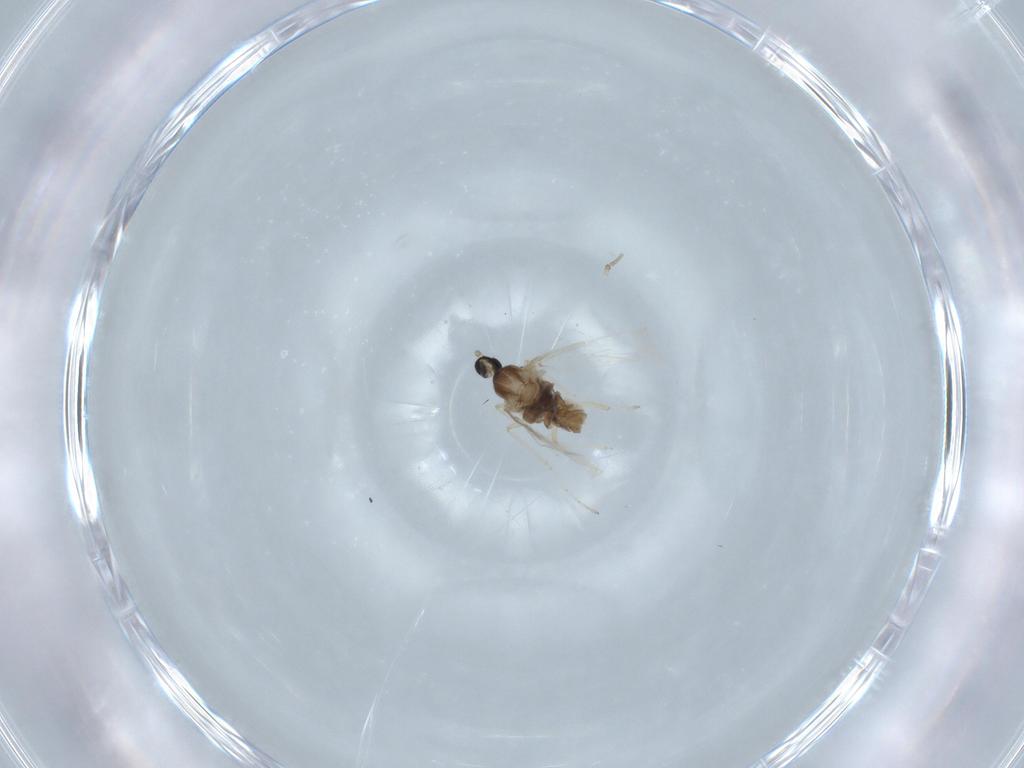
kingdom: Animalia
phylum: Arthropoda
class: Insecta
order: Diptera
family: Cecidomyiidae
